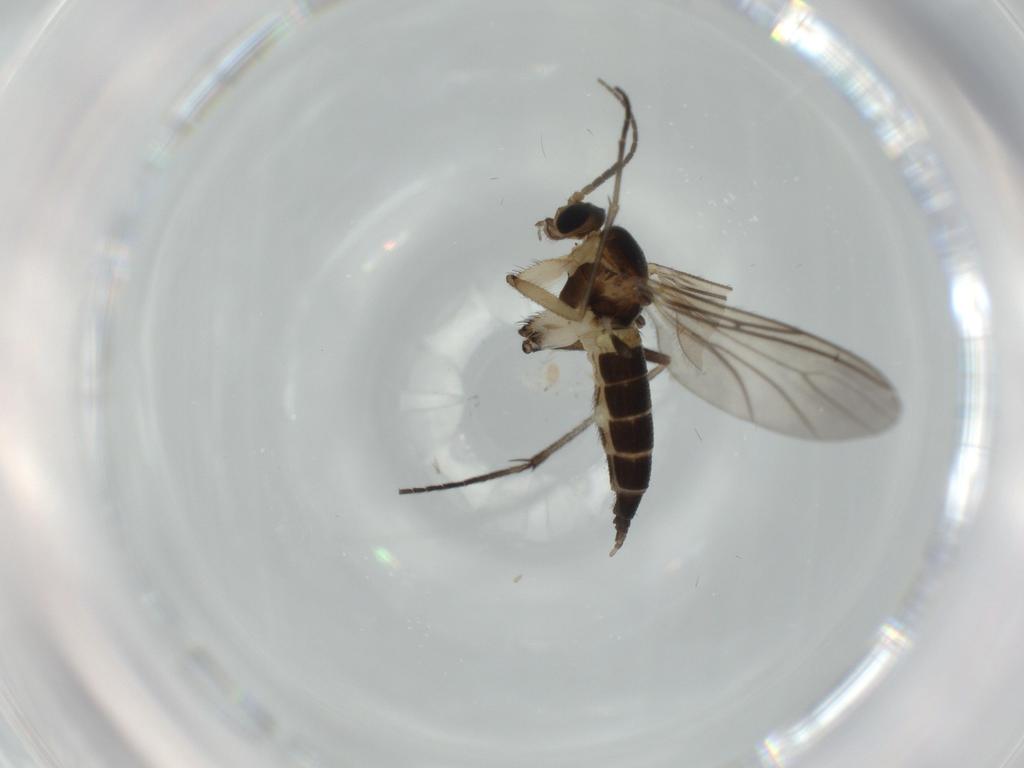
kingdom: Animalia
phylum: Arthropoda
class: Insecta
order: Diptera
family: Sciaridae
